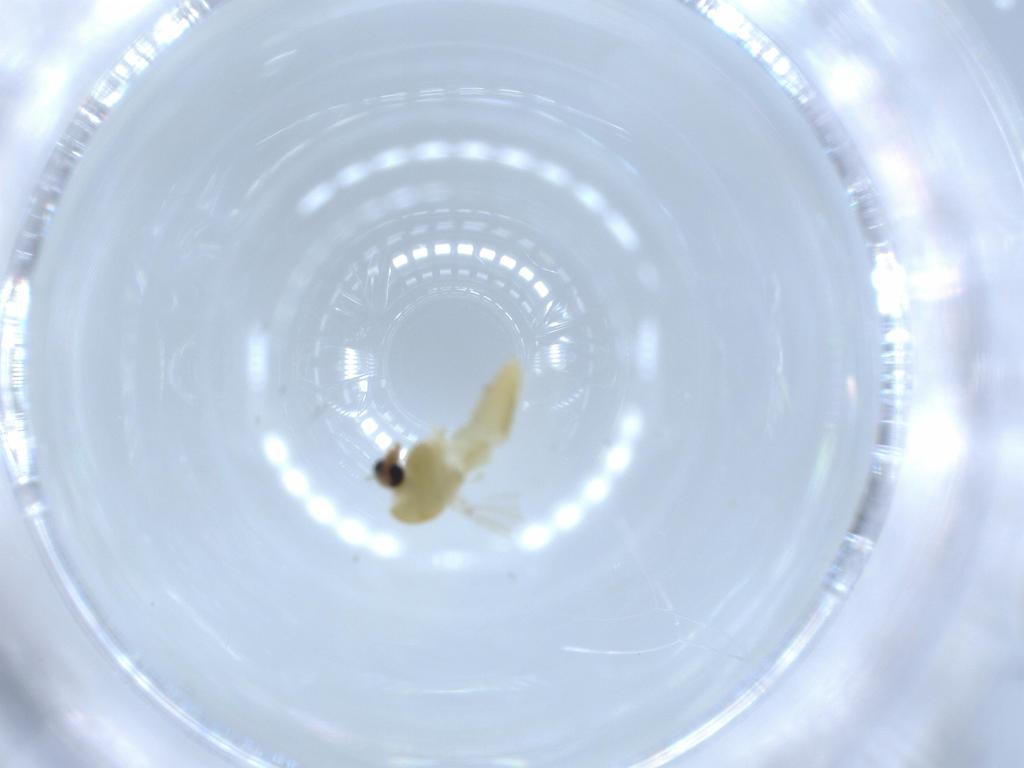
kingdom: Animalia
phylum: Arthropoda
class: Insecta
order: Diptera
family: Chironomidae
